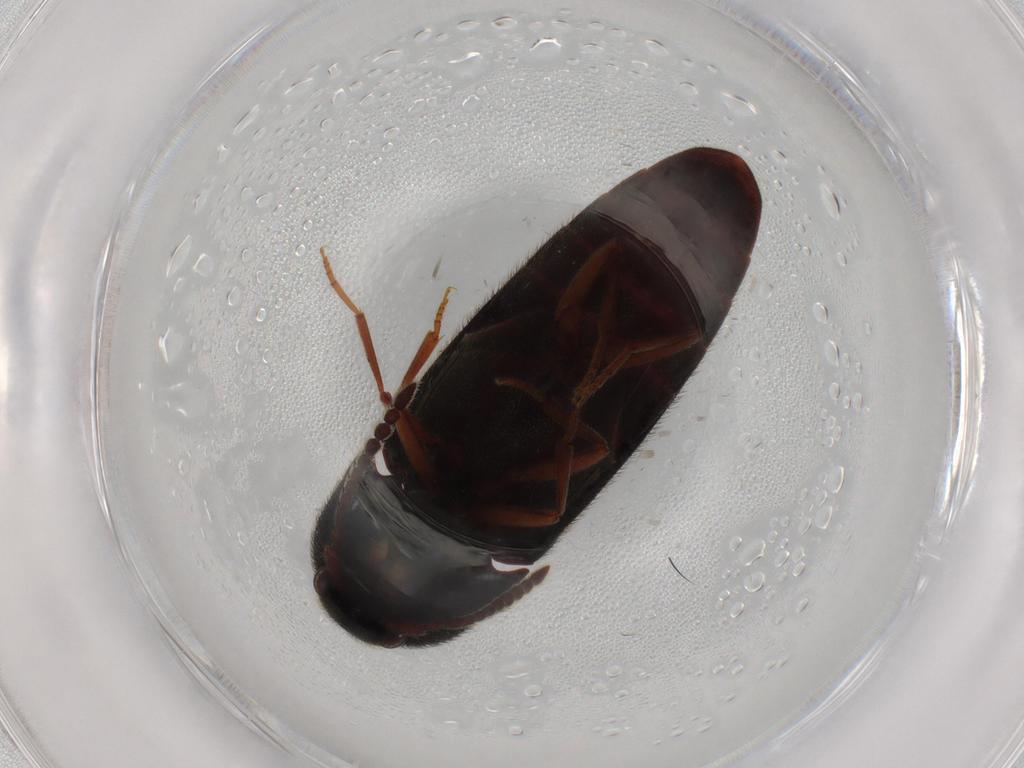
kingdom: Animalia
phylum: Arthropoda
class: Insecta
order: Coleoptera
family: Eucnemidae
